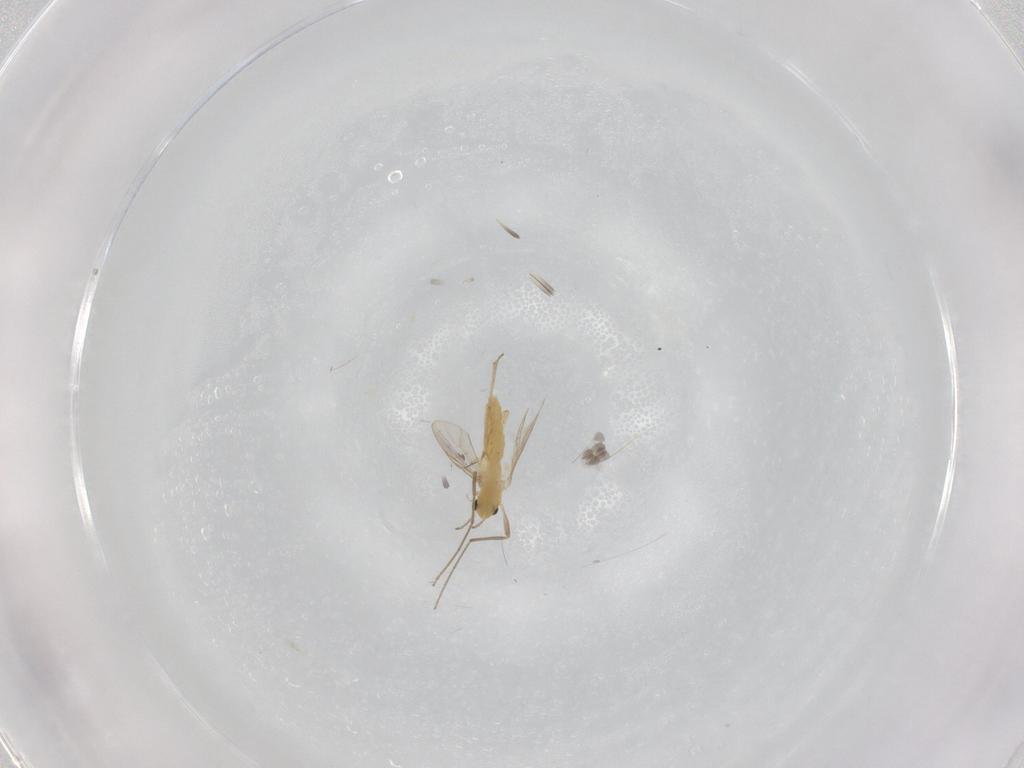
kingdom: Animalia
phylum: Arthropoda
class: Insecta
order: Diptera
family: Chironomidae
